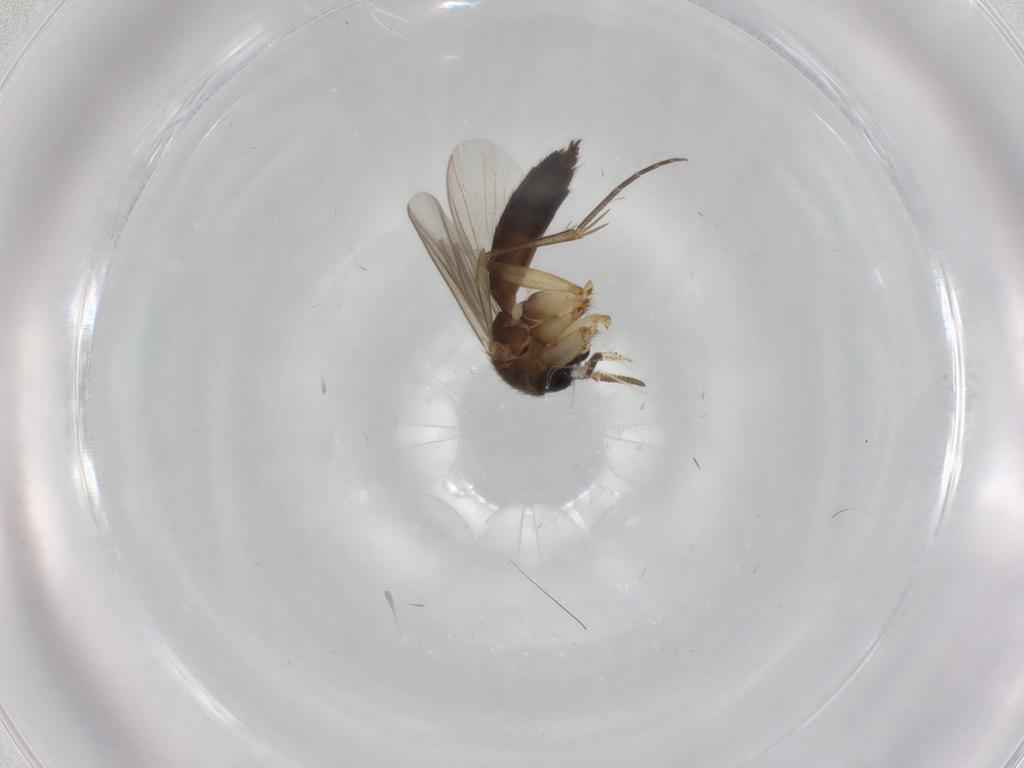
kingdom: Animalia
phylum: Arthropoda
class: Insecta
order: Diptera
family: Mycetophilidae
